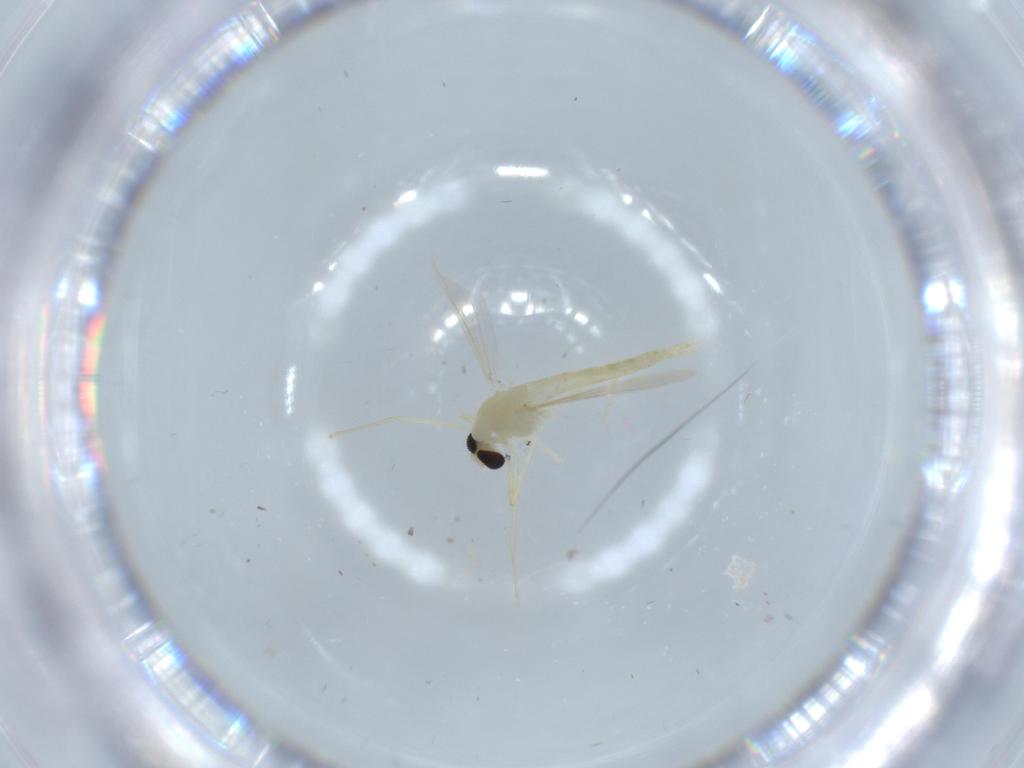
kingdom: Animalia
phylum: Arthropoda
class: Insecta
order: Diptera
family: Chironomidae
